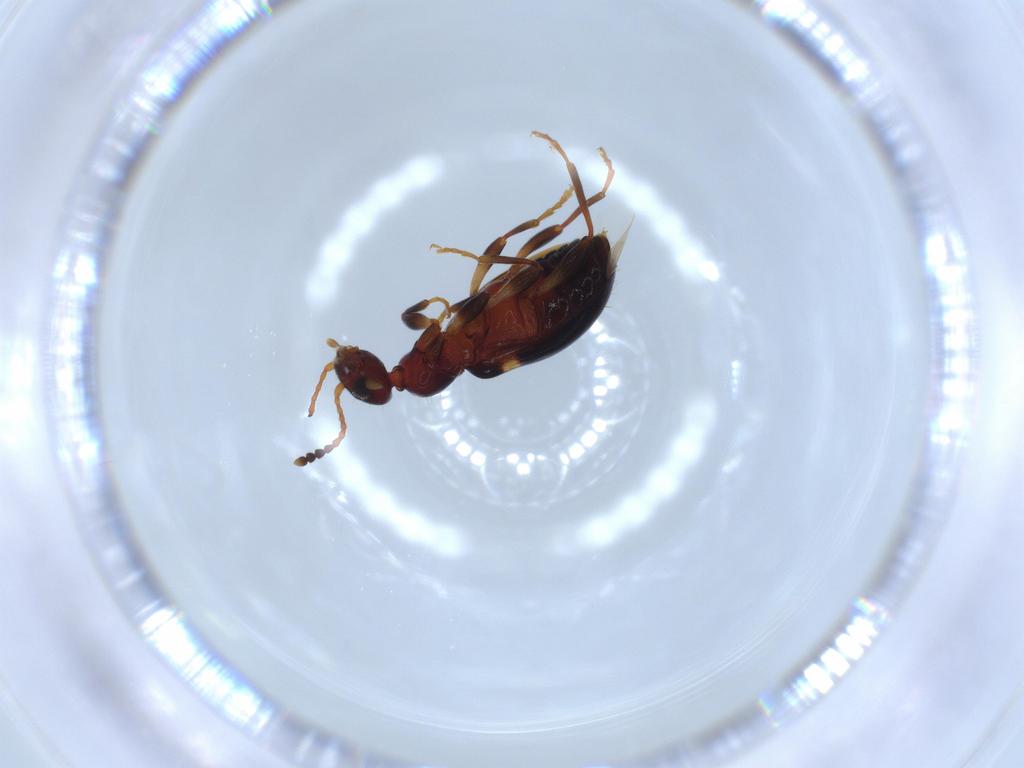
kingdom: Animalia
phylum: Arthropoda
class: Insecta
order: Coleoptera
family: Anthicidae
